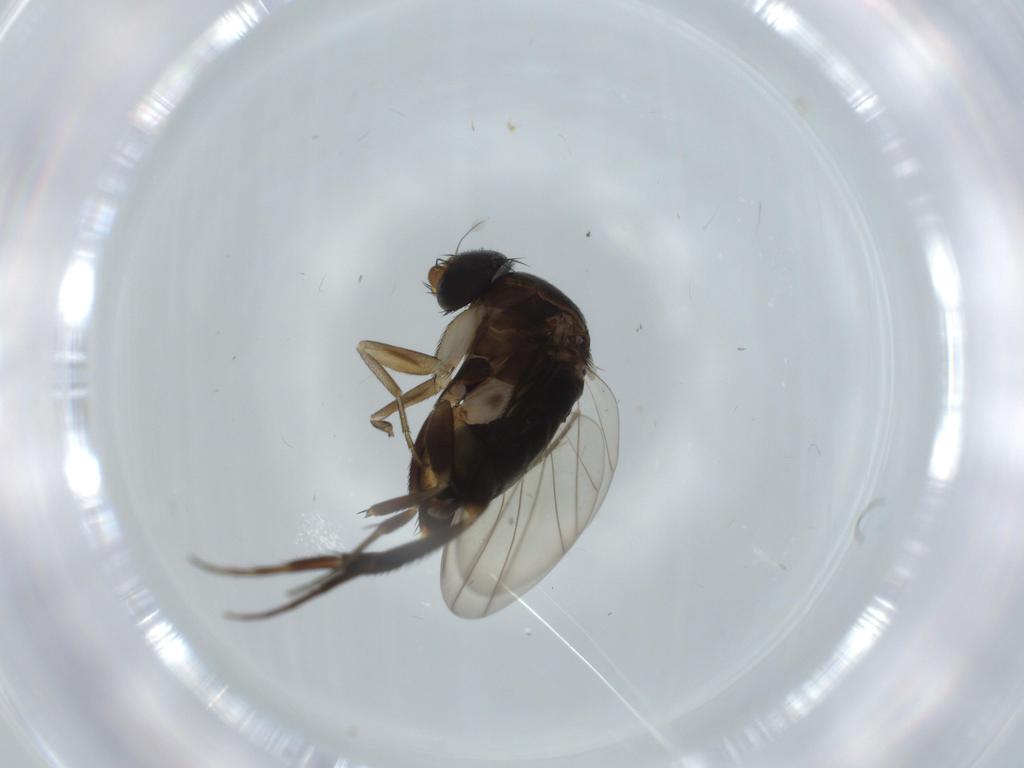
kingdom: Animalia
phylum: Arthropoda
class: Insecta
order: Diptera
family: Phoridae
